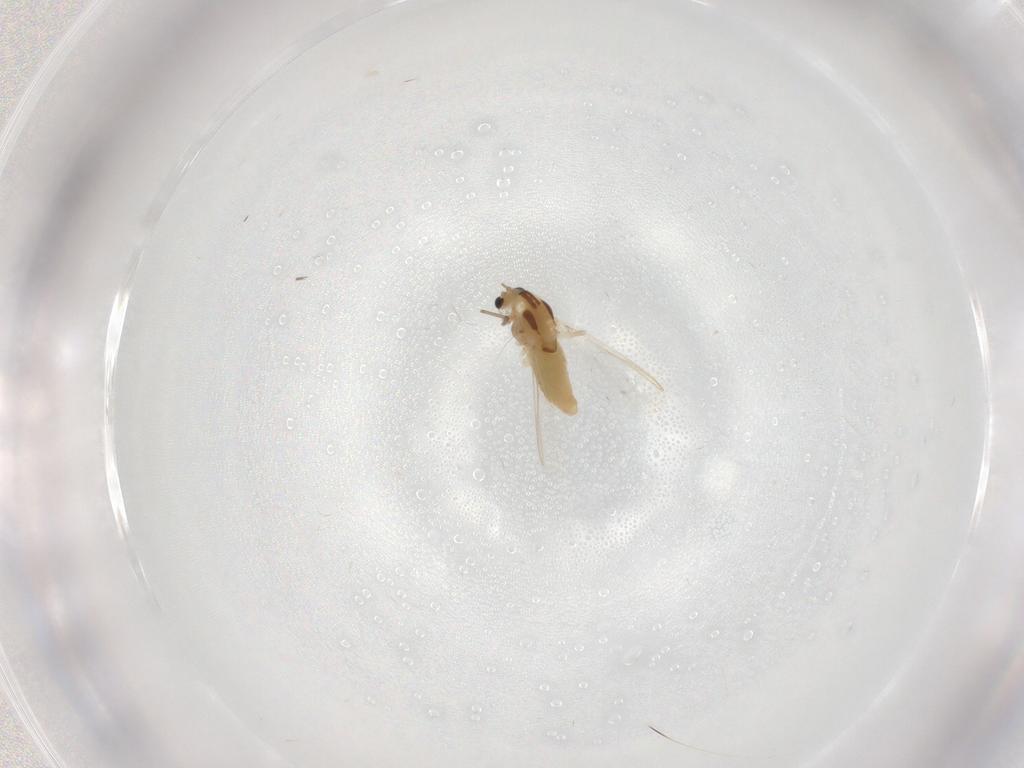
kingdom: Animalia
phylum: Arthropoda
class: Insecta
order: Diptera
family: Chironomidae
